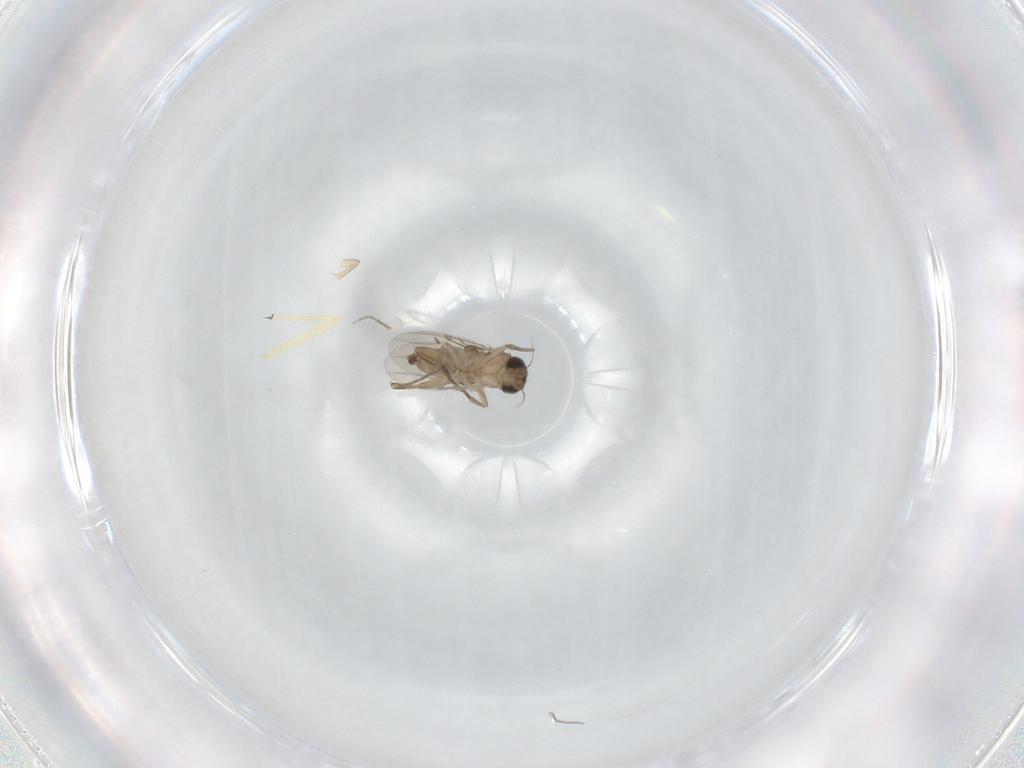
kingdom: Animalia
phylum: Arthropoda
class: Insecta
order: Diptera
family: Phoridae
